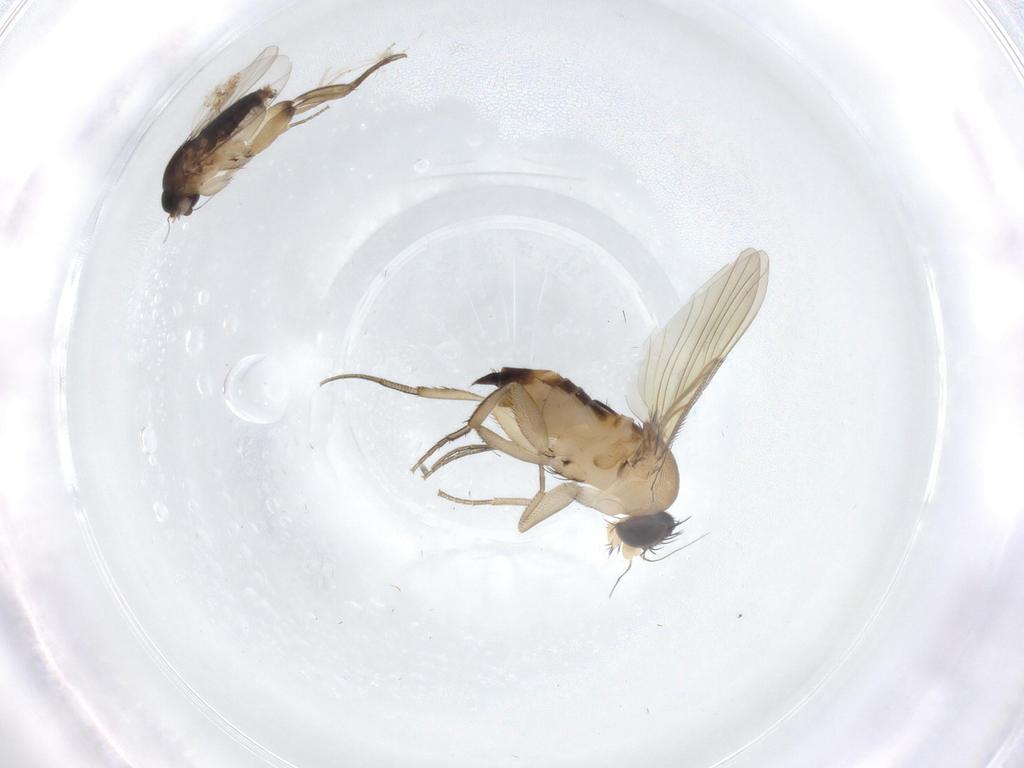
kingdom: Animalia
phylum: Arthropoda
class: Insecta
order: Diptera
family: Phoridae
